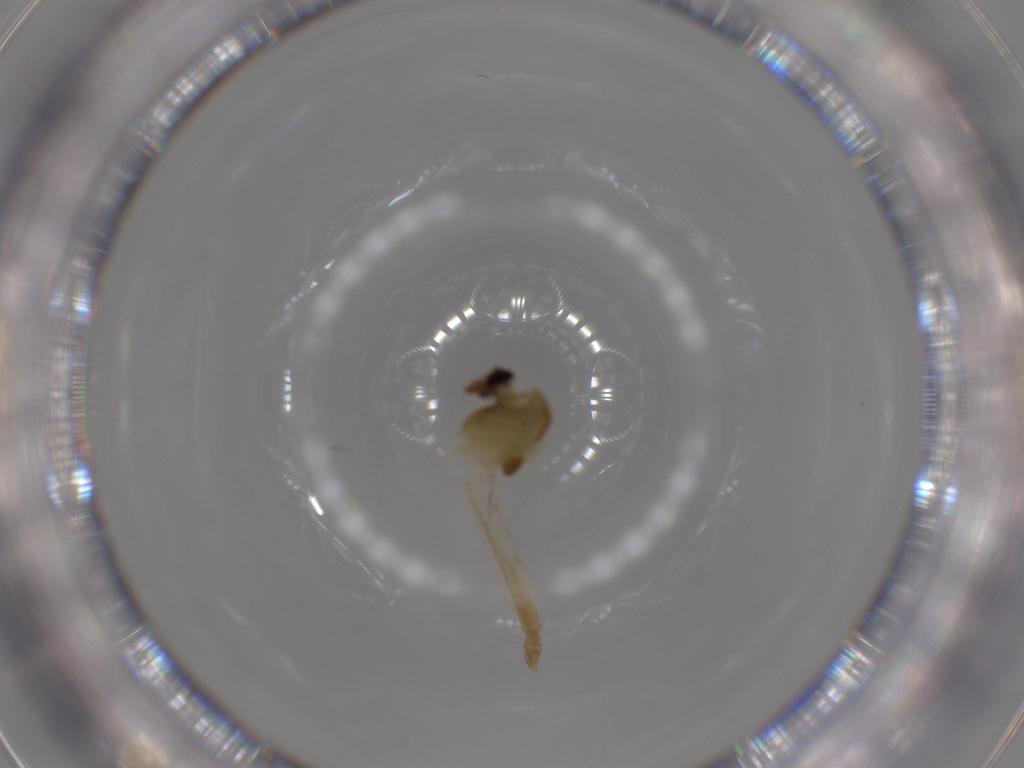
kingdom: Animalia
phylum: Arthropoda
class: Insecta
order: Diptera
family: Chironomidae
